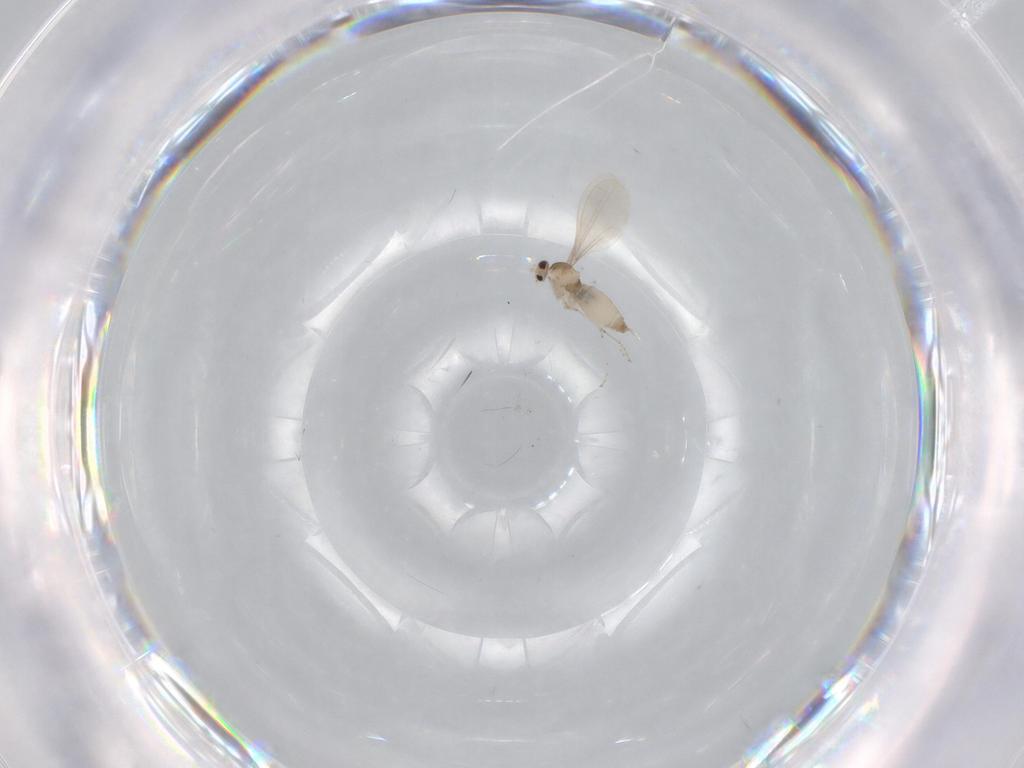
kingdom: Animalia
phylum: Arthropoda
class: Insecta
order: Diptera
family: Cecidomyiidae
